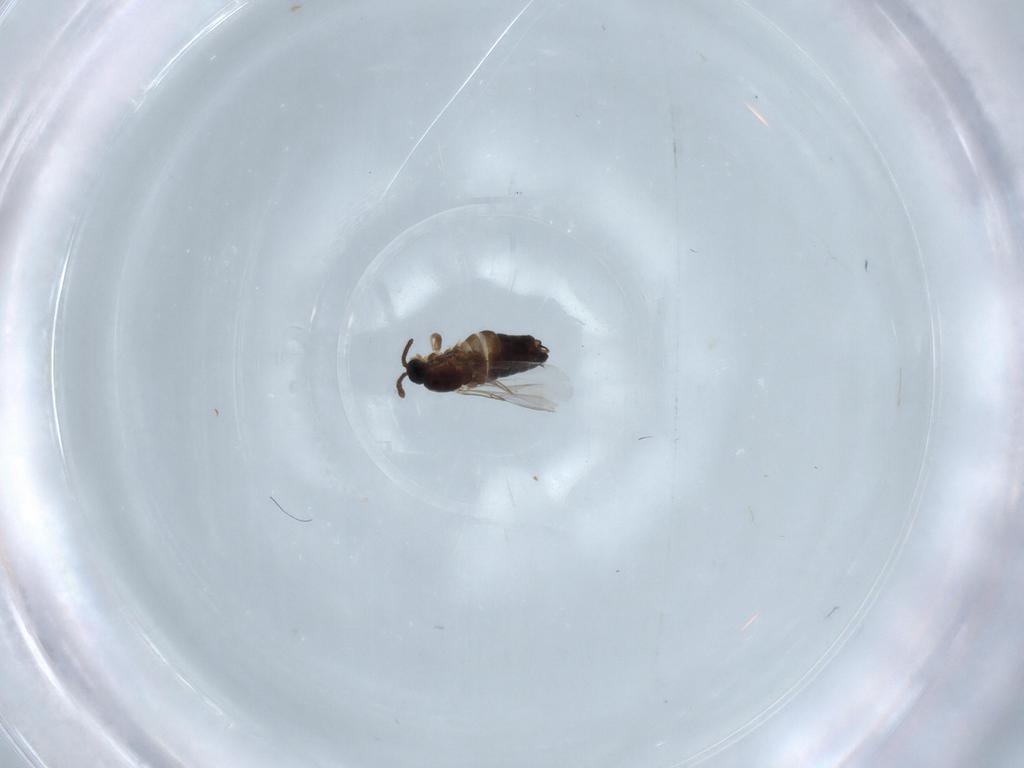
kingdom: Animalia
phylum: Arthropoda
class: Insecta
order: Diptera
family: Scatopsidae
